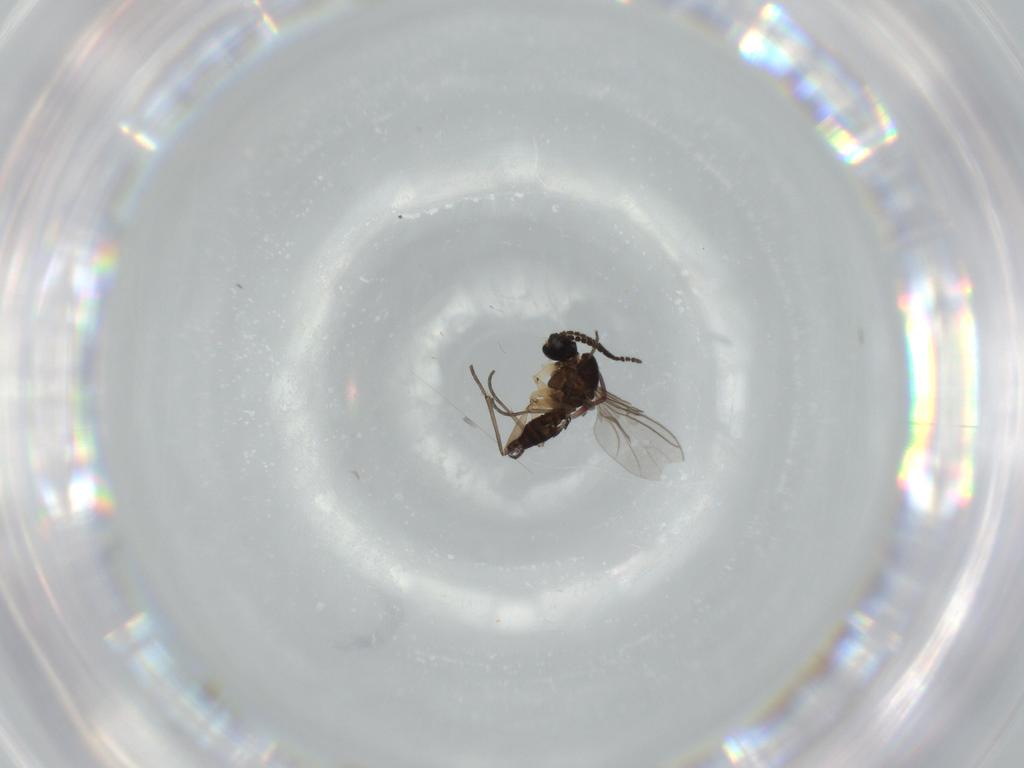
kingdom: Animalia
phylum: Arthropoda
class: Insecta
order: Diptera
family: Sciaridae
